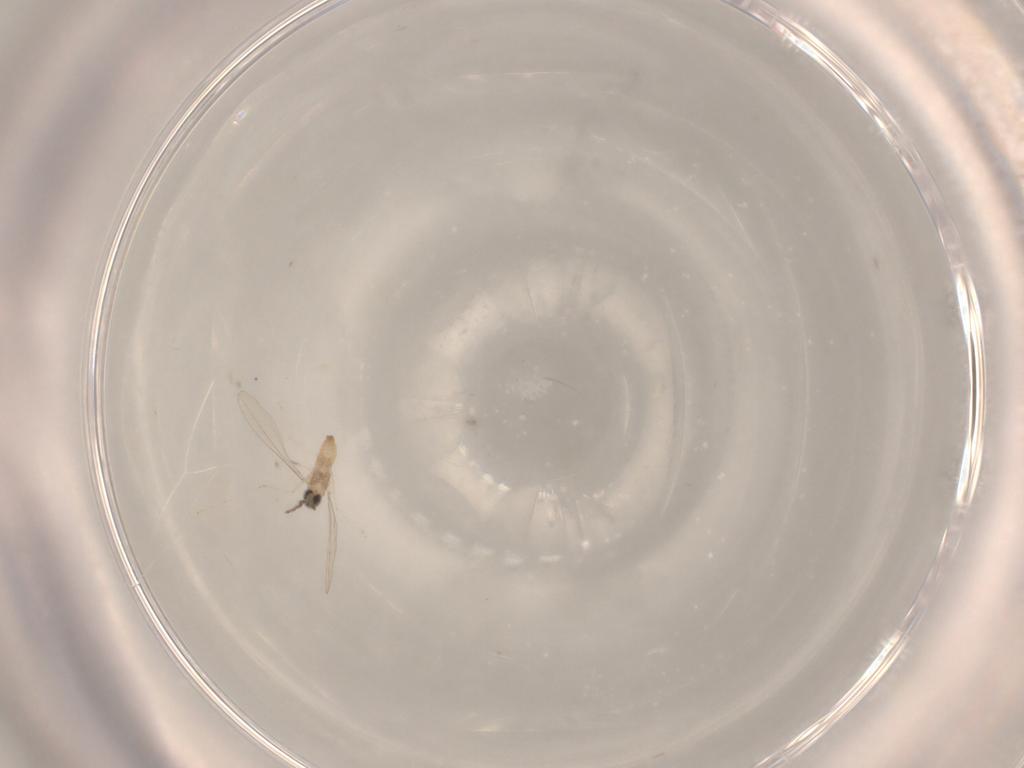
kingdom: Animalia
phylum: Arthropoda
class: Insecta
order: Diptera
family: Cecidomyiidae
